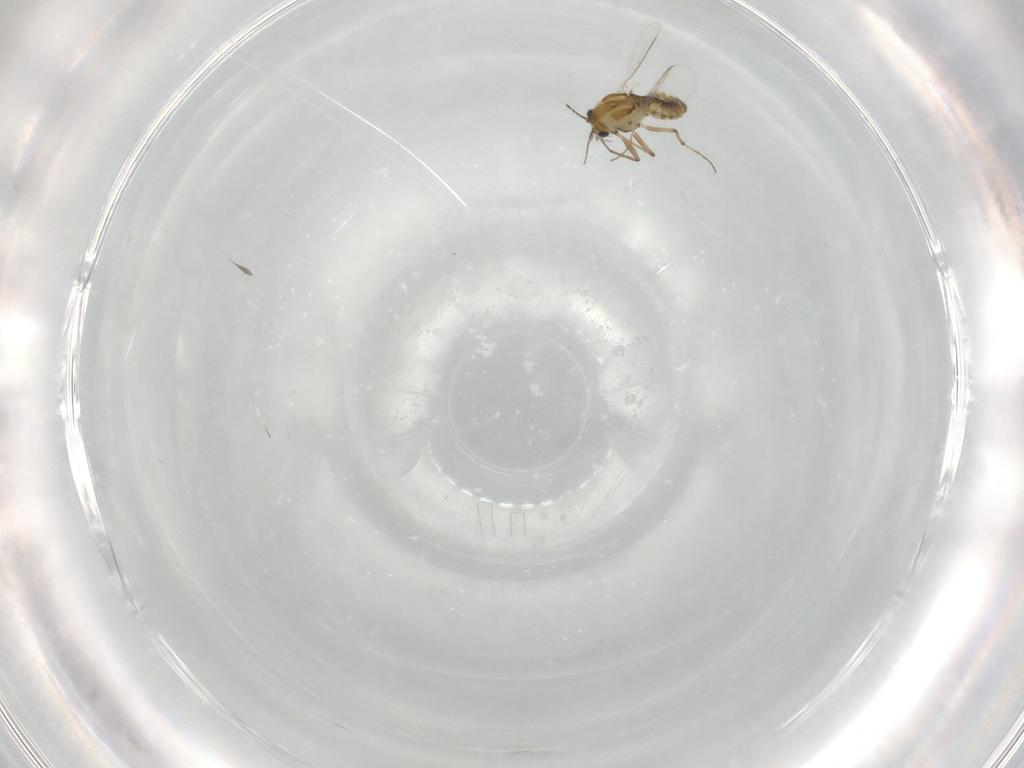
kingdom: Animalia
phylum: Arthropoda
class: Insecta
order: Diptera
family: Chironomidae
